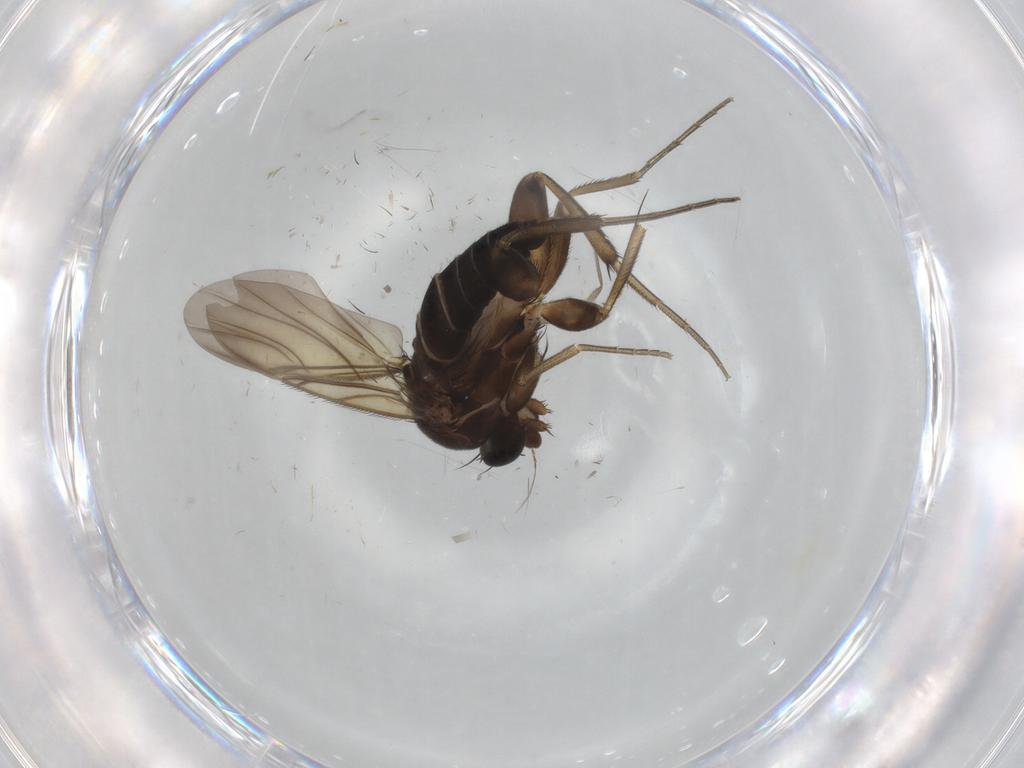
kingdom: Animalia
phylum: Arthropoda
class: Insecta
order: Diptera
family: Phoridae
